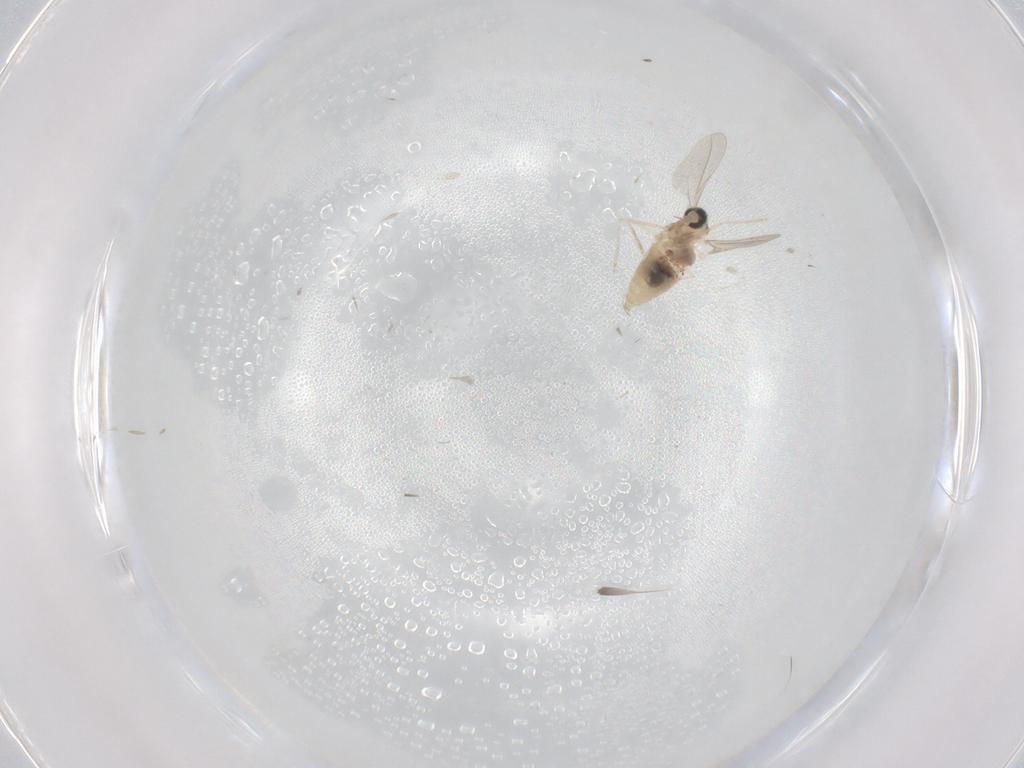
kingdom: Animalia
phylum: Arthropoda
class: Insecta
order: Diptera
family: Cecidomyiidae
